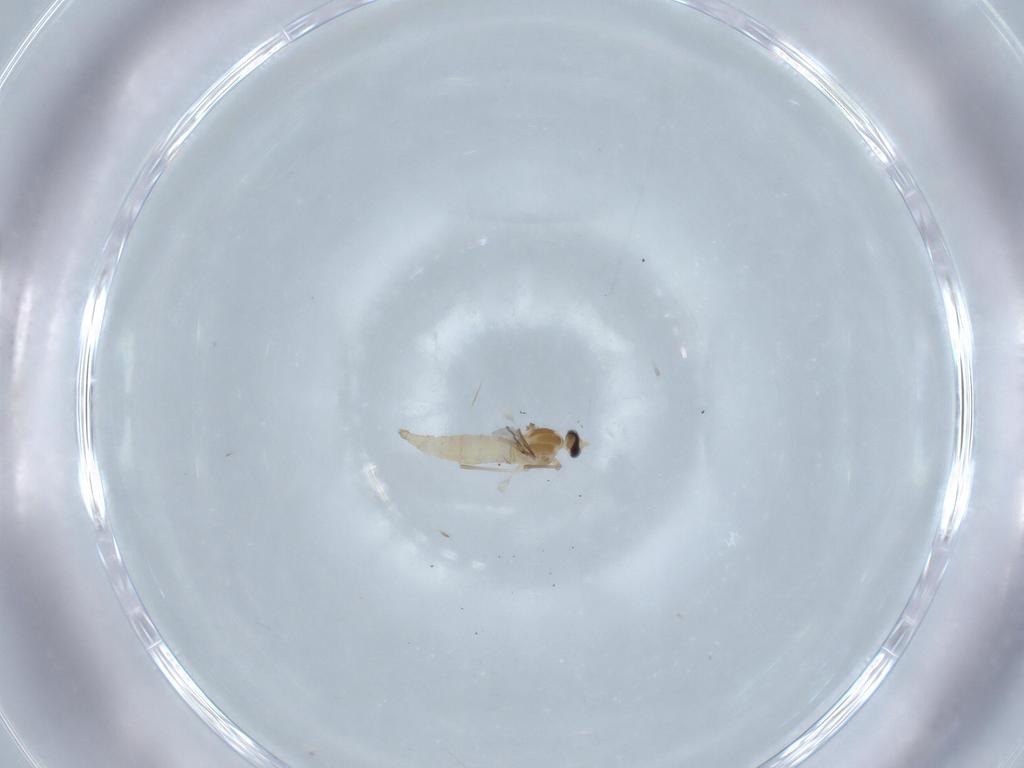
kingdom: Animalia
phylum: Arthropoda
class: Insecta
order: Diptera
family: Cecidomyiidae
